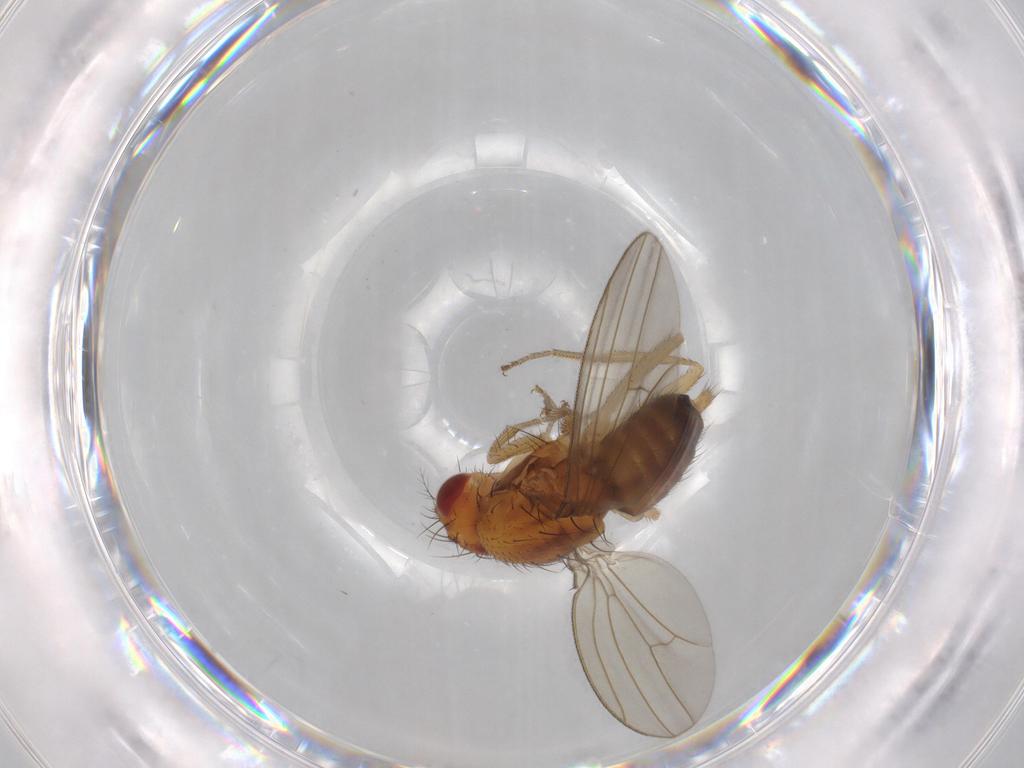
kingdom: Animalia
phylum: Arthropoda
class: Insecta
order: Diptera
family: Drosophilidae
